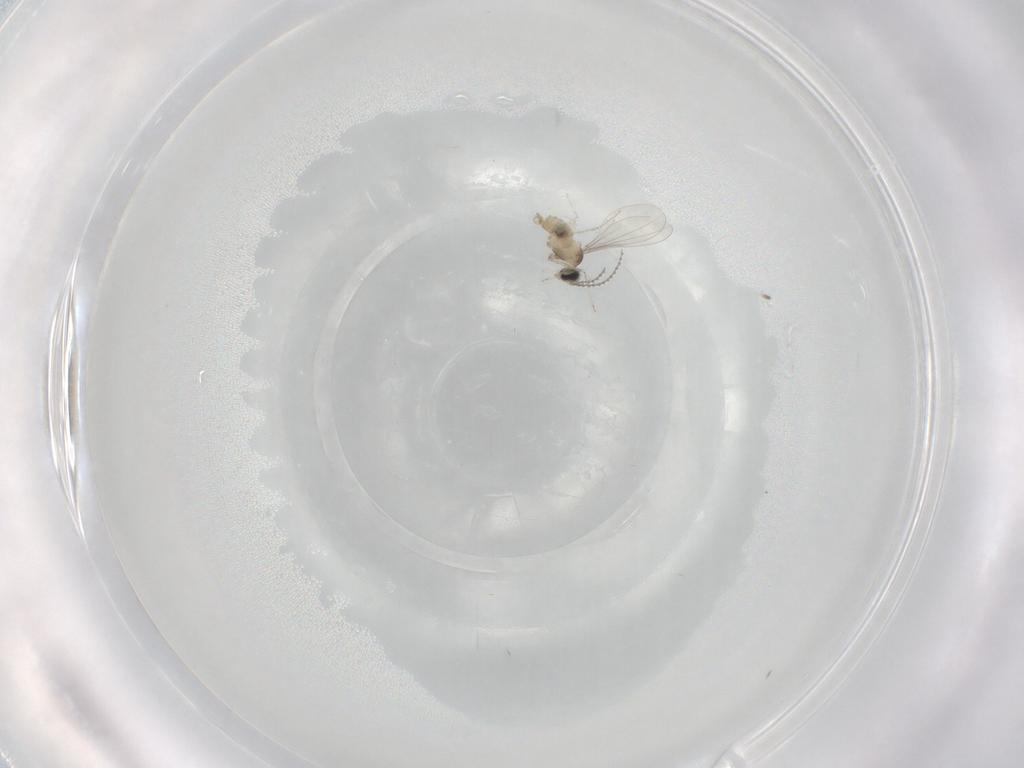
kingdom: Animalia
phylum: Arthropoda
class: Insecta
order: Diptera
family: Cecidomyiidae
